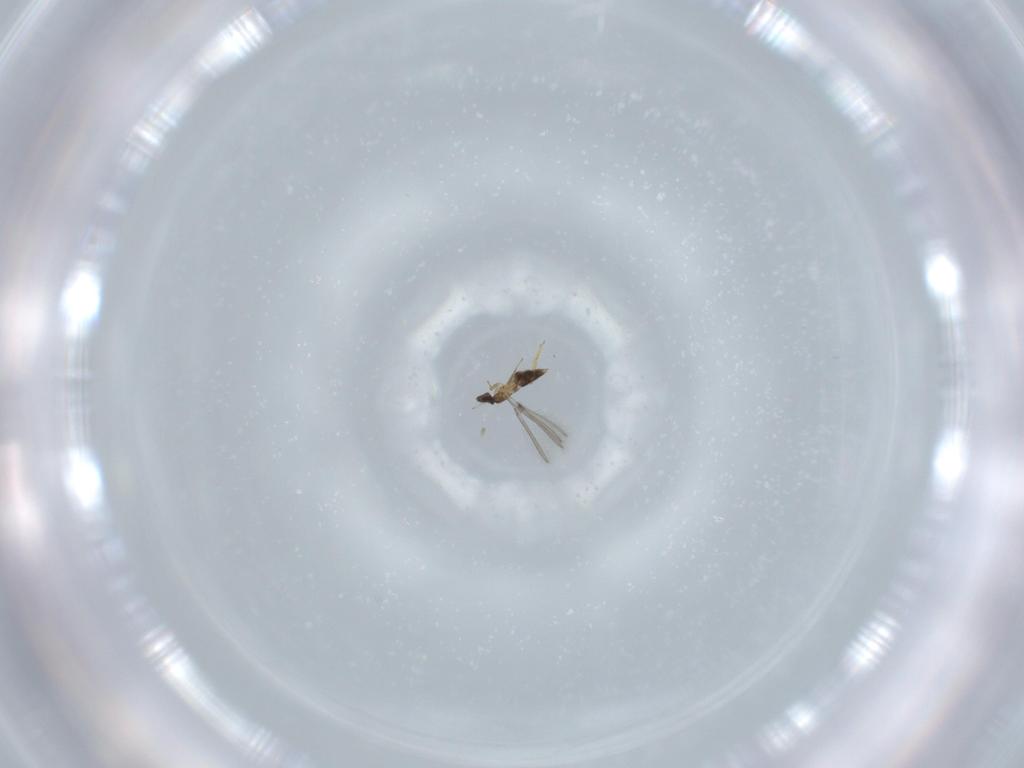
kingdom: Animalia
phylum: Arthropoda
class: Insecta
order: Hymenoptera
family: Mymaridae
